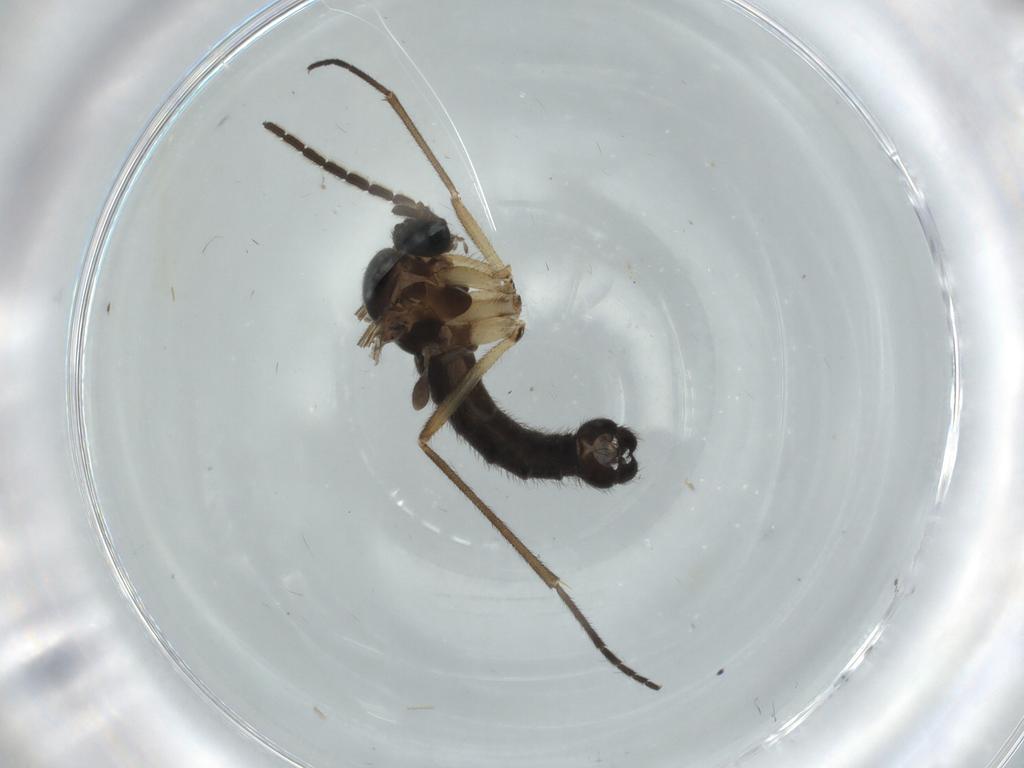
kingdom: Animalia
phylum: Arthropoda
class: Insecta
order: Diptera
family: Sciaridae
